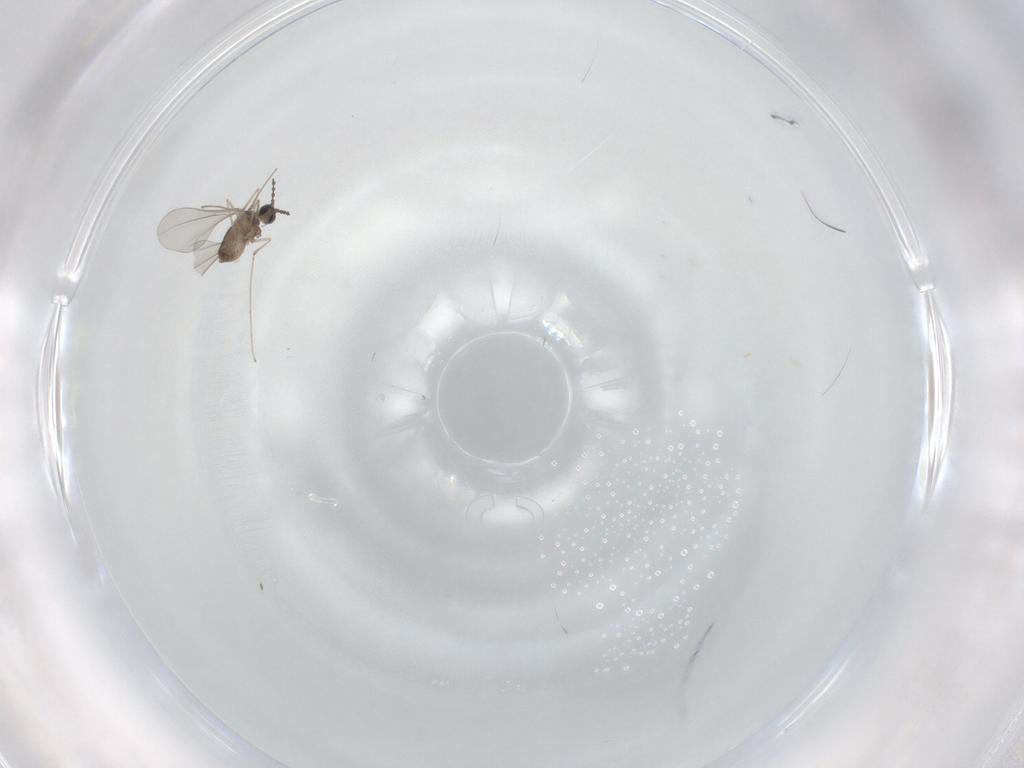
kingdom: Animalia
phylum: Arthropoda
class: Insecta
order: Diptera
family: Cecidomyiidae
